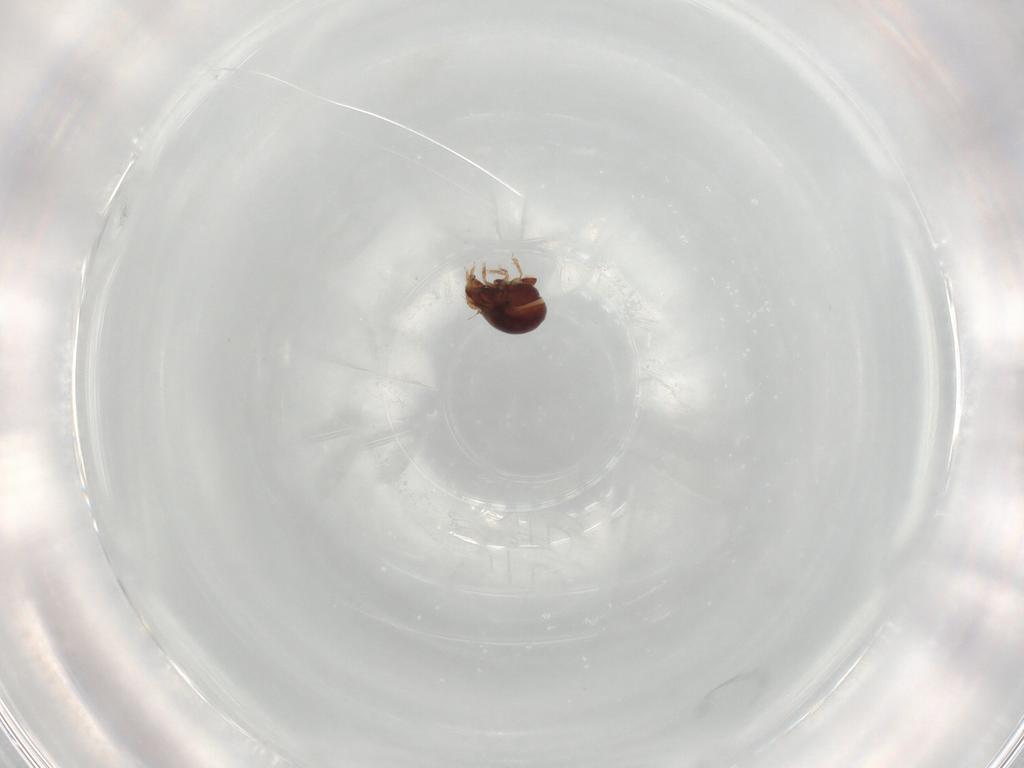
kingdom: Animalia
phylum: Arthropoda
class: Arachnida
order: Sarcoptiformes
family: Ceratozetidae
